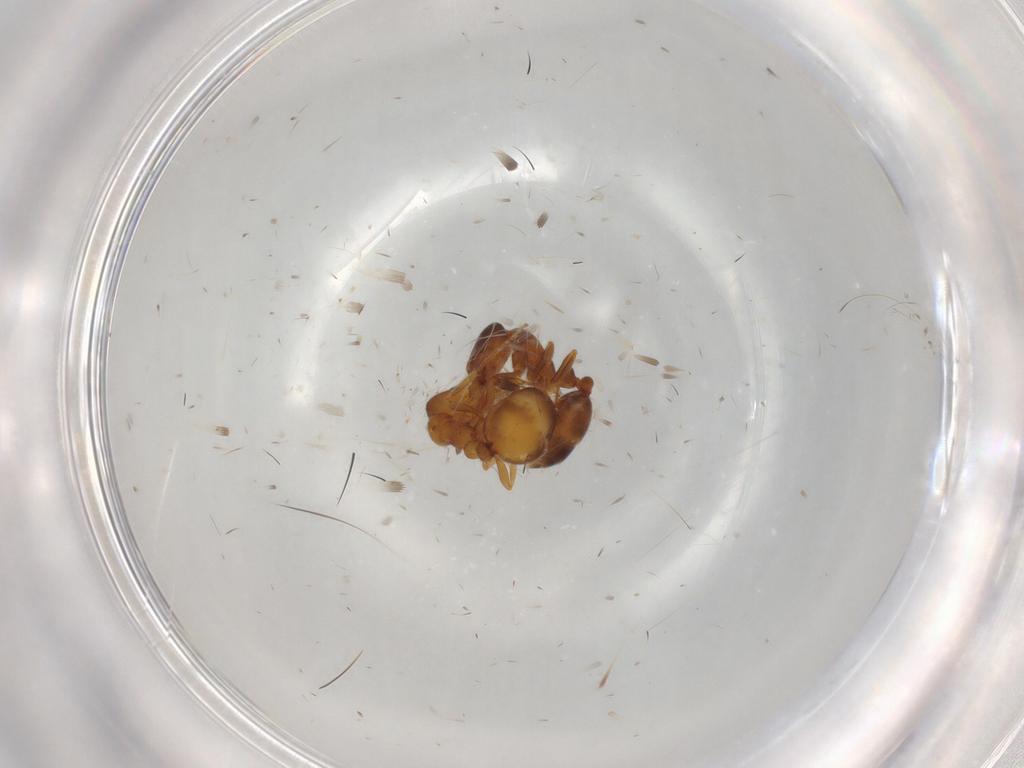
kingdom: Animalia
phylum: Arthropoda
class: Insecta
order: Hymenoptera
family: Formicidae
